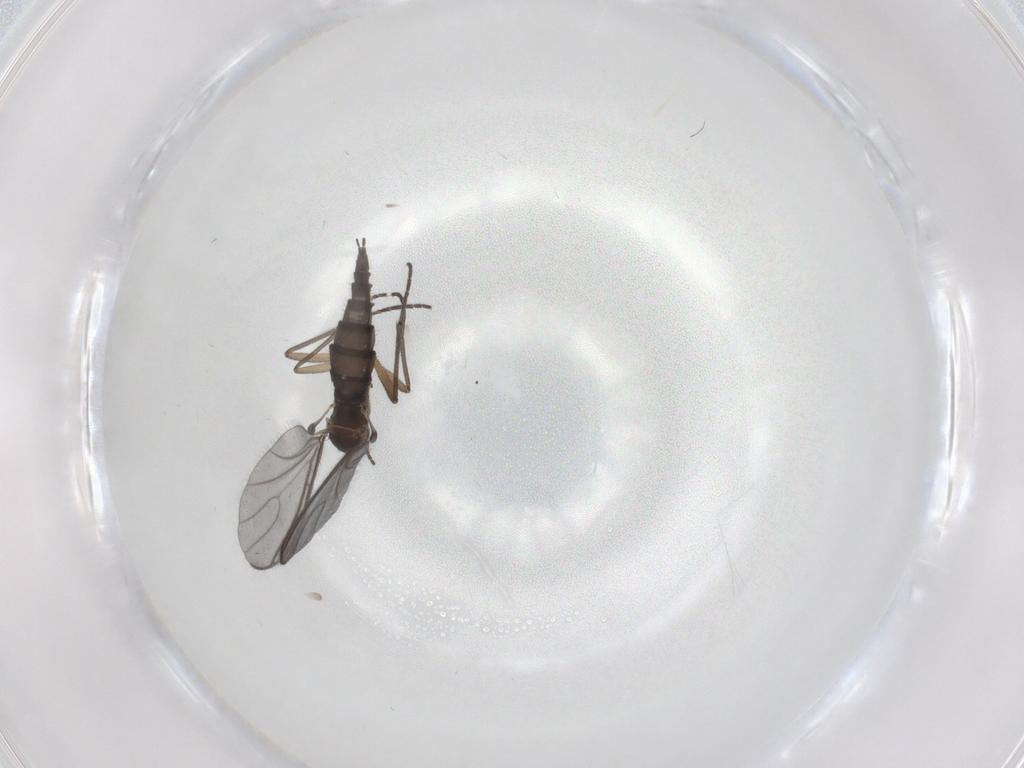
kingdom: Animalia
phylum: Arthropoda
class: Insecta
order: Diptera
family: Sciaridae
